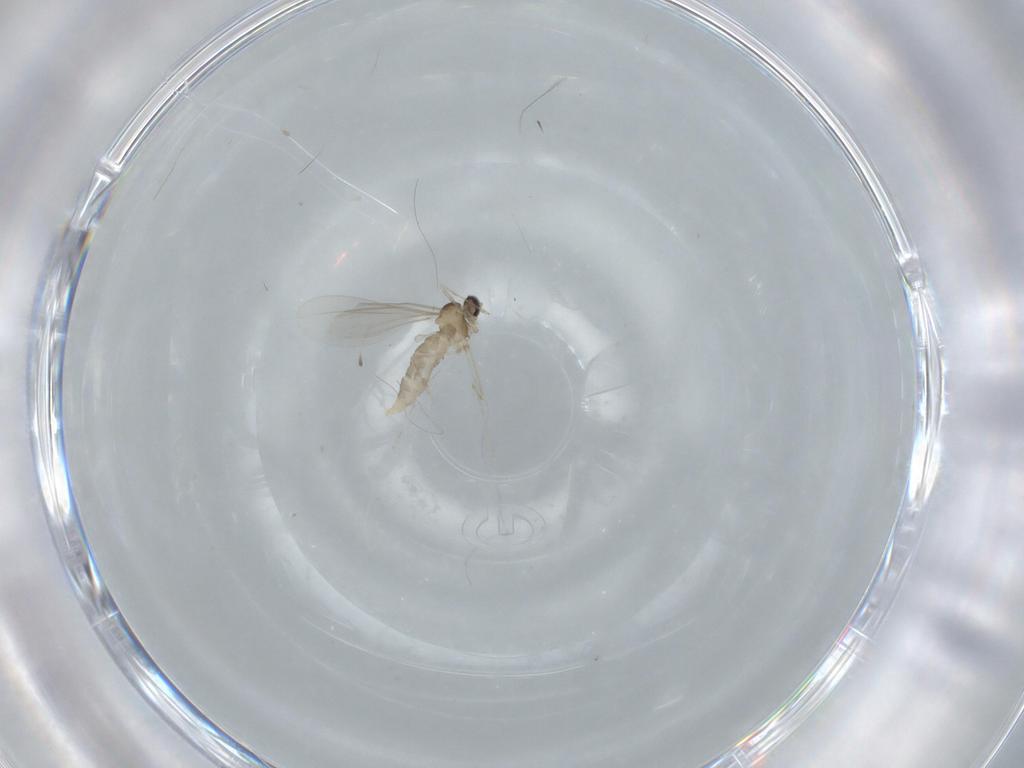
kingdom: Animalia
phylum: Arthropoda
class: Insecta
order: Diptera
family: Cecidomyiidae
